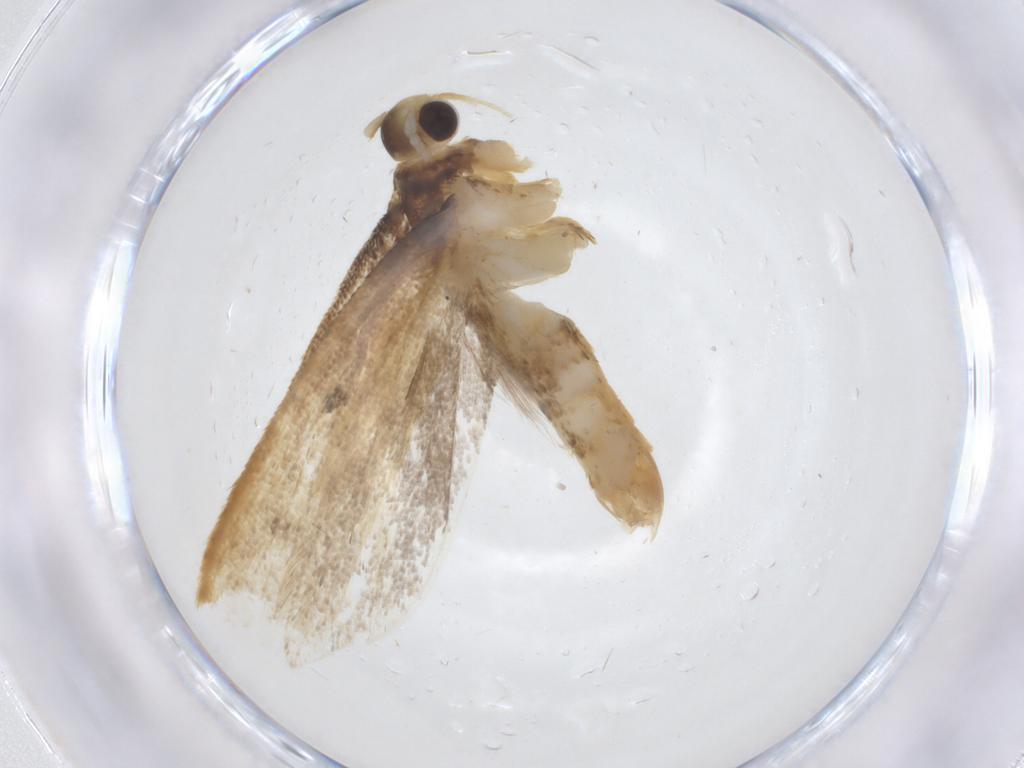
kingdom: Animalia
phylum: Arthropoda
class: Insecta
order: Lepidoptera
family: Lecithoceridae
